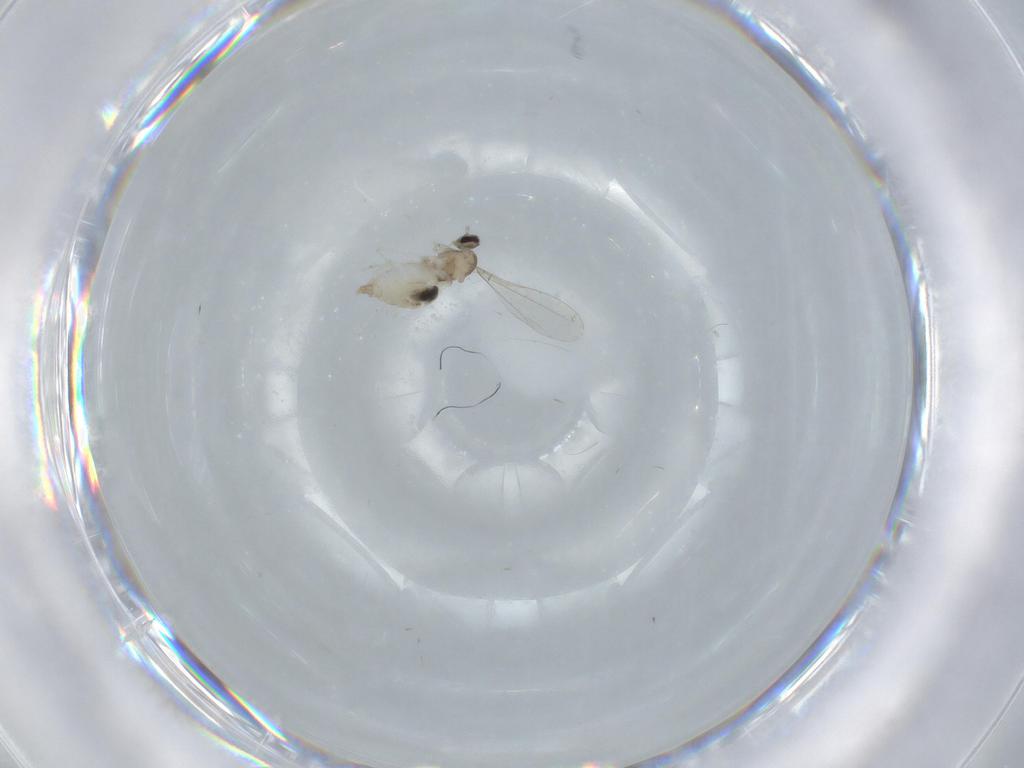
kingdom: Animalia
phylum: Arthropoda
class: Insecta
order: Diptera
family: Cecidomyiidae
